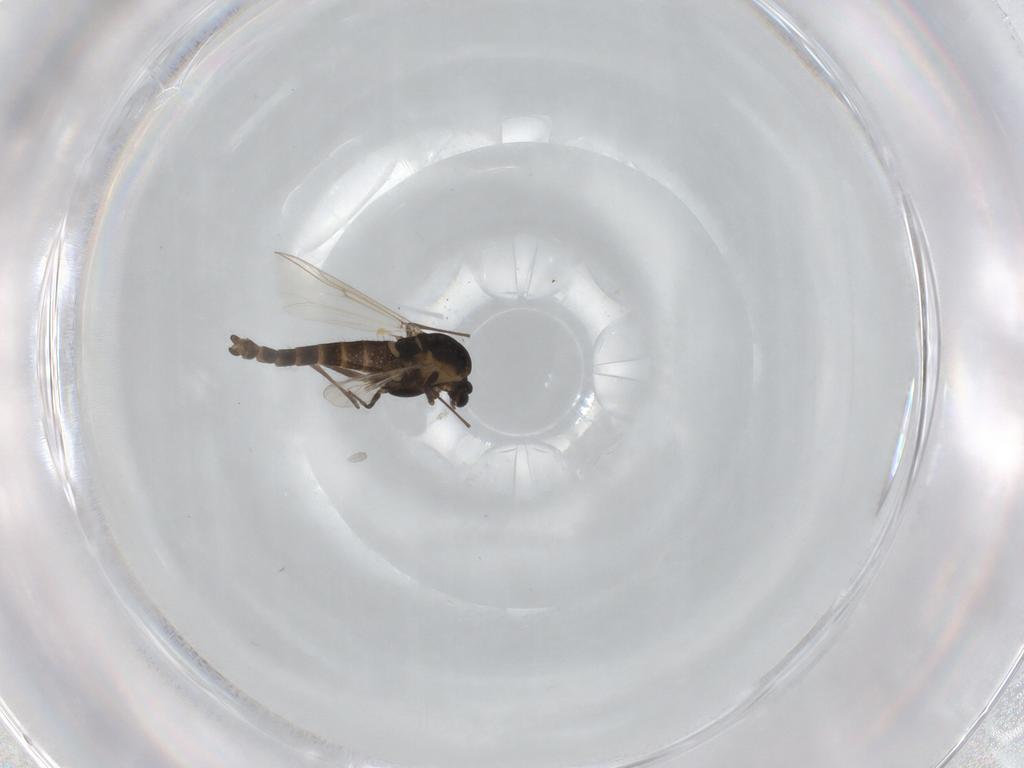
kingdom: Animalia
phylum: Arthropoda
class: Insecta
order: Diptera
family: Chironomidae
